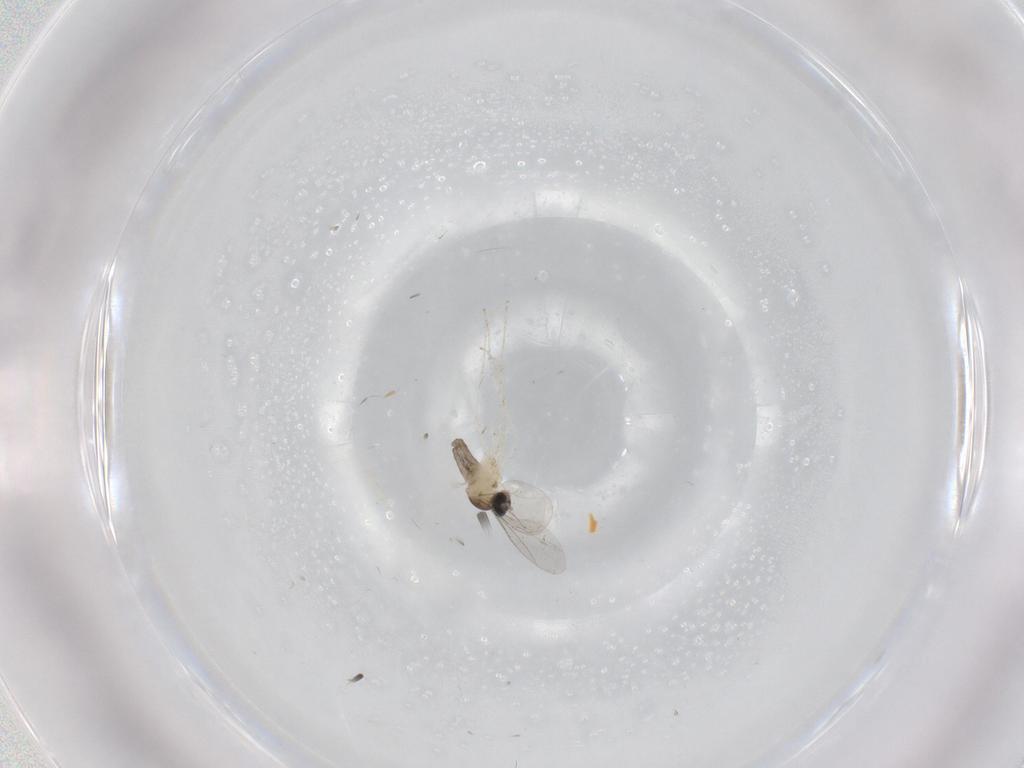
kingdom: Animalia
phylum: Arthropoda
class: Insecta
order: Diptera
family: Cecidomyiidae
